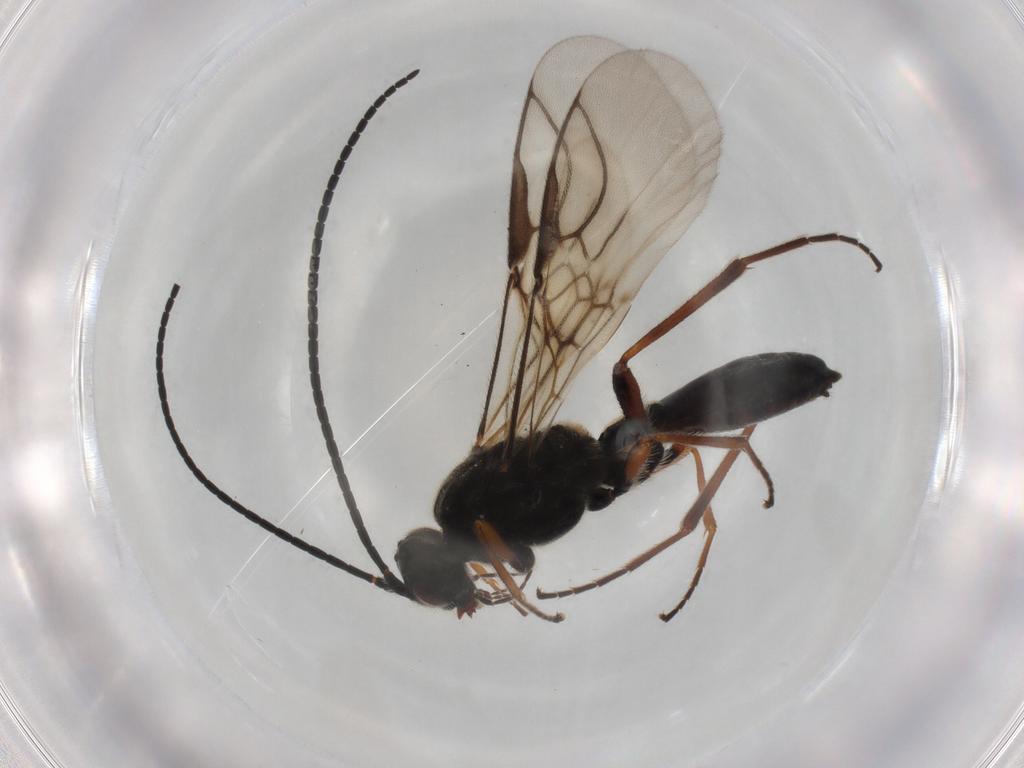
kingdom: Animalia
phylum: Arthropoda
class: Insecta
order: Hymenoptera
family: Braconidae
